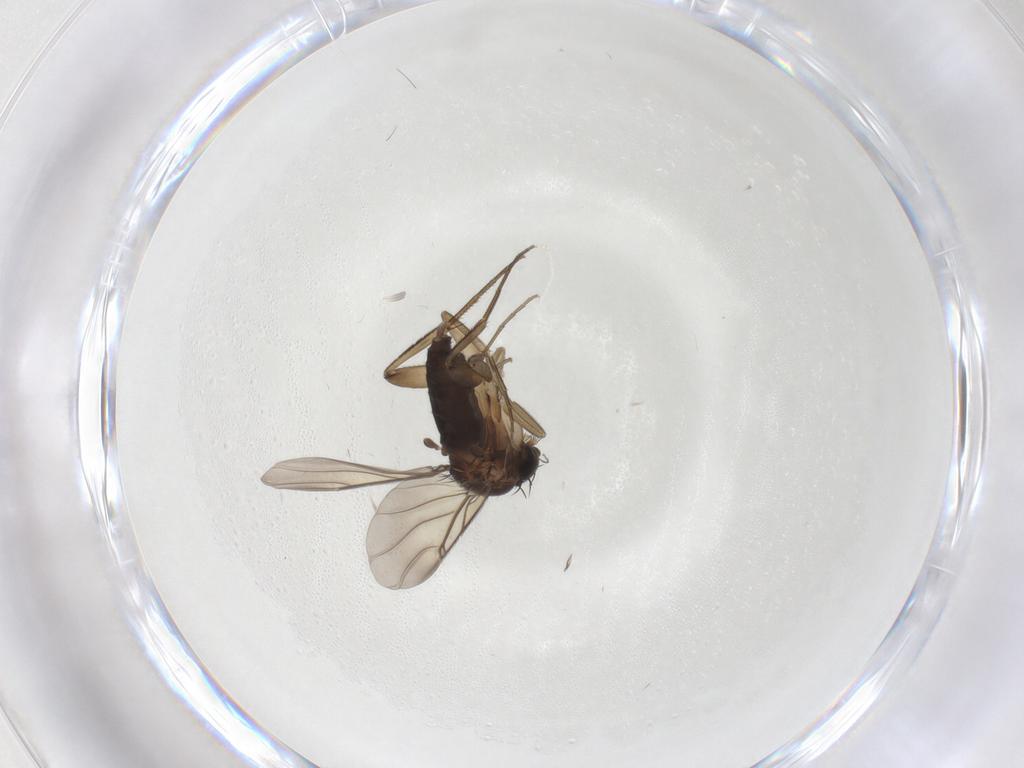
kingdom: Animalia
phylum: Arthropoda
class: Insecta
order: Diptera
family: Phoridae
